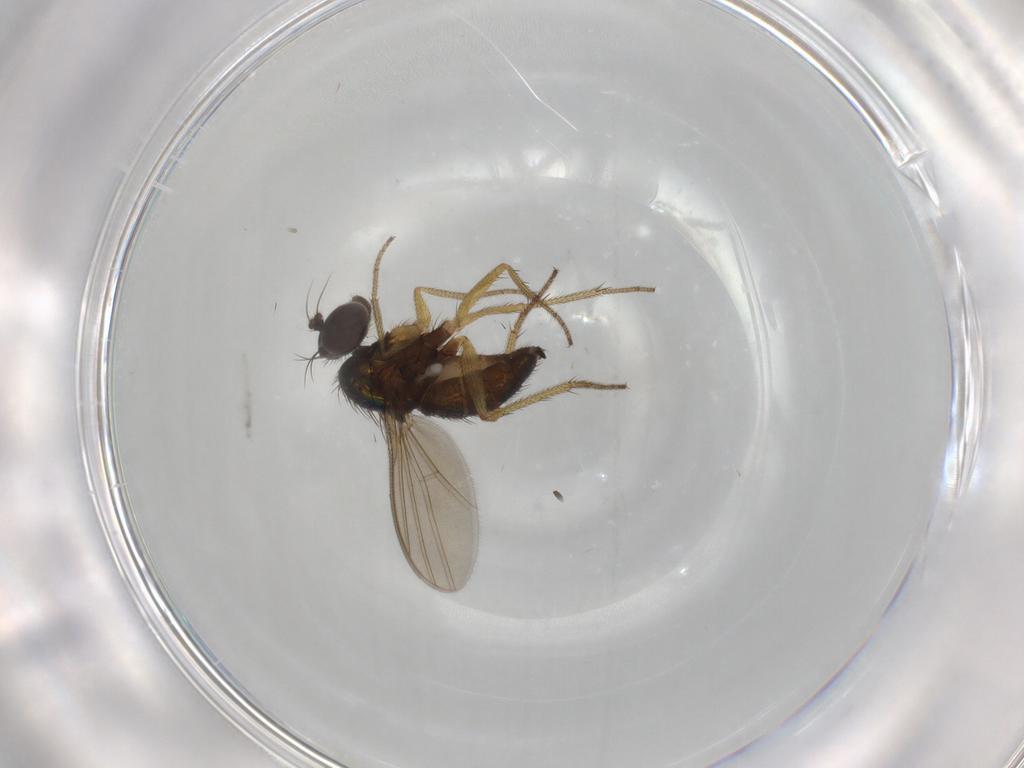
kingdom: Animalia
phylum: Arthropoda
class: Insecta
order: Diptera
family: Dolichopodidae
